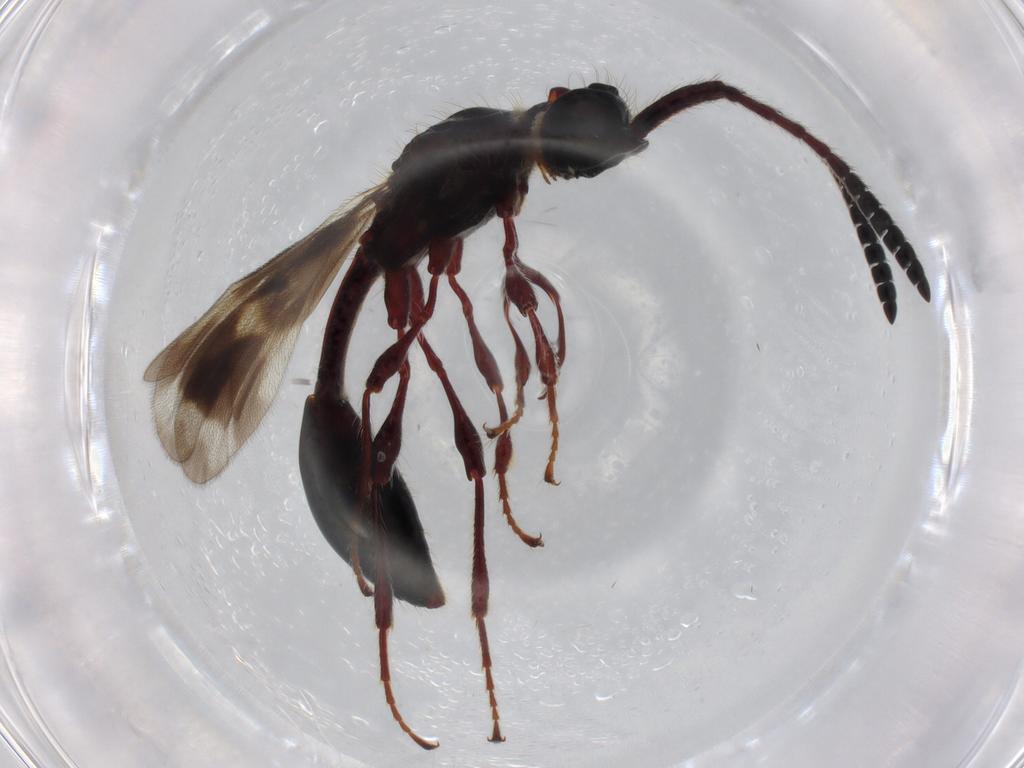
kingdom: Animalia
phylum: Arthropoda
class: Insecta
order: Hymenoptera
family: Diapriidae
